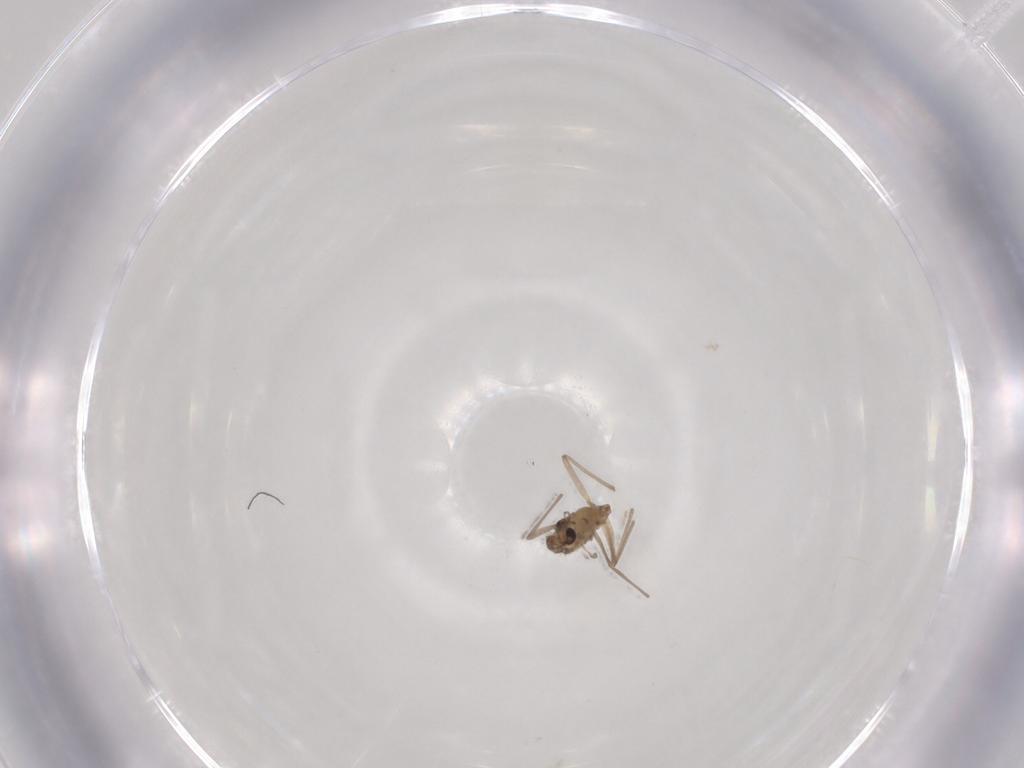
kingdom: Animalia
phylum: Arthropoda
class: Insecta
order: Diptera
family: Chironomidae
